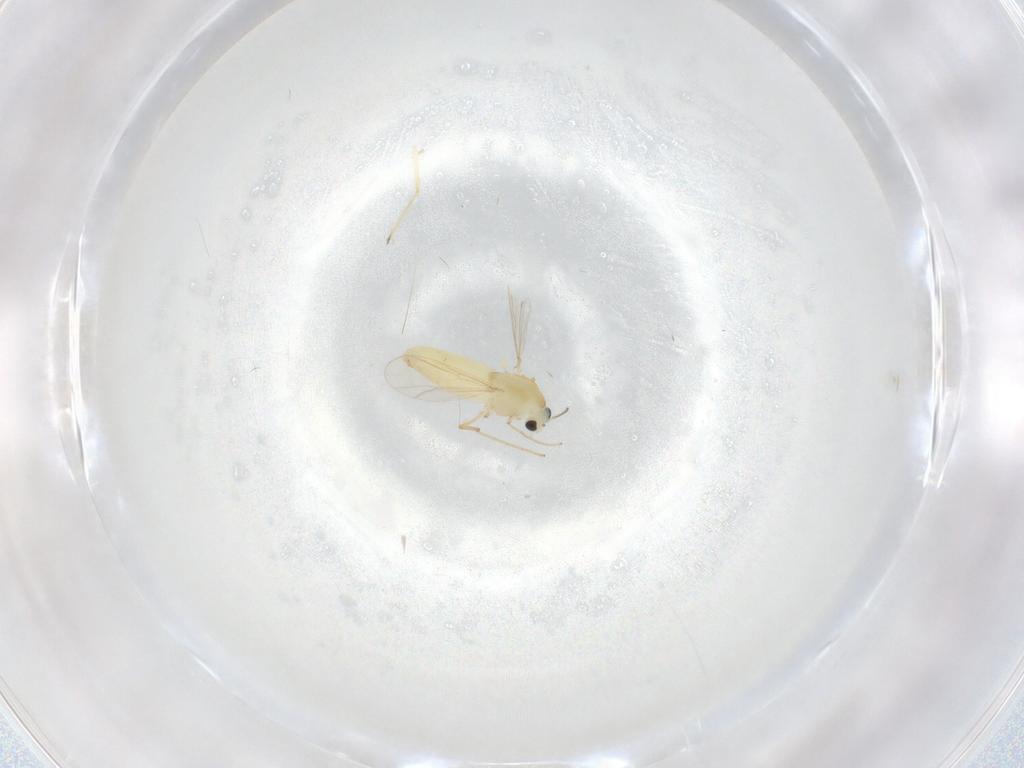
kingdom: Animalia
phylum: Arthropoda
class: Insecta
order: Diptera
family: Chironomidae
